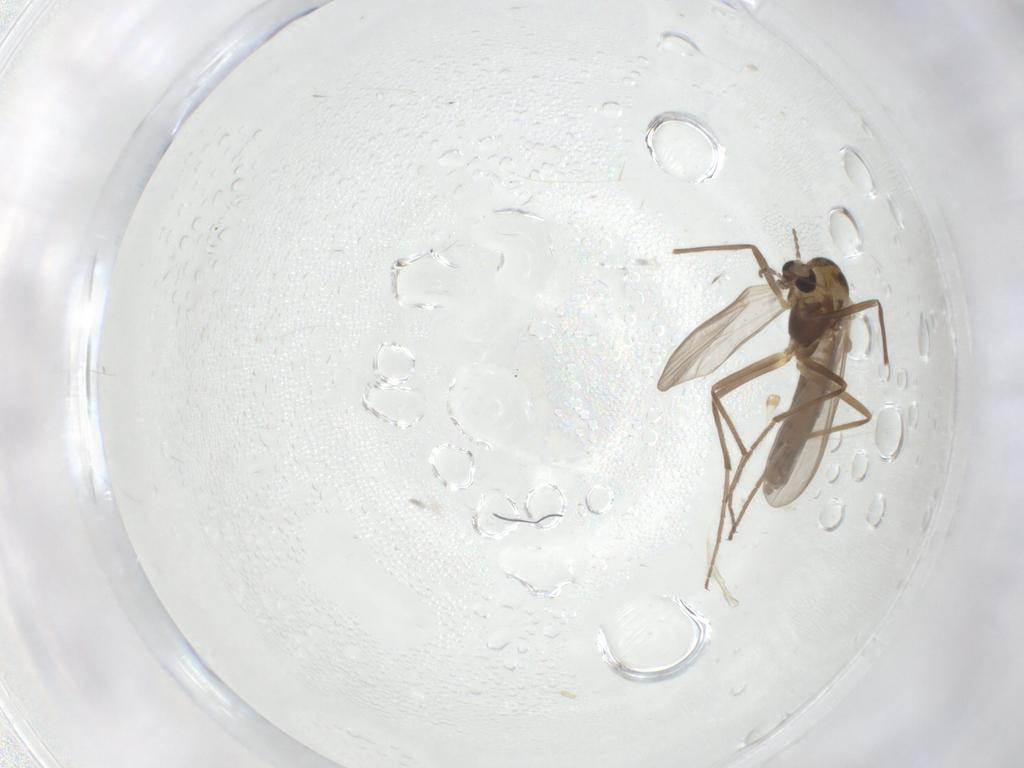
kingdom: Animalia
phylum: Arthropoda
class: Insecta
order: Diptera
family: Chironomidae
